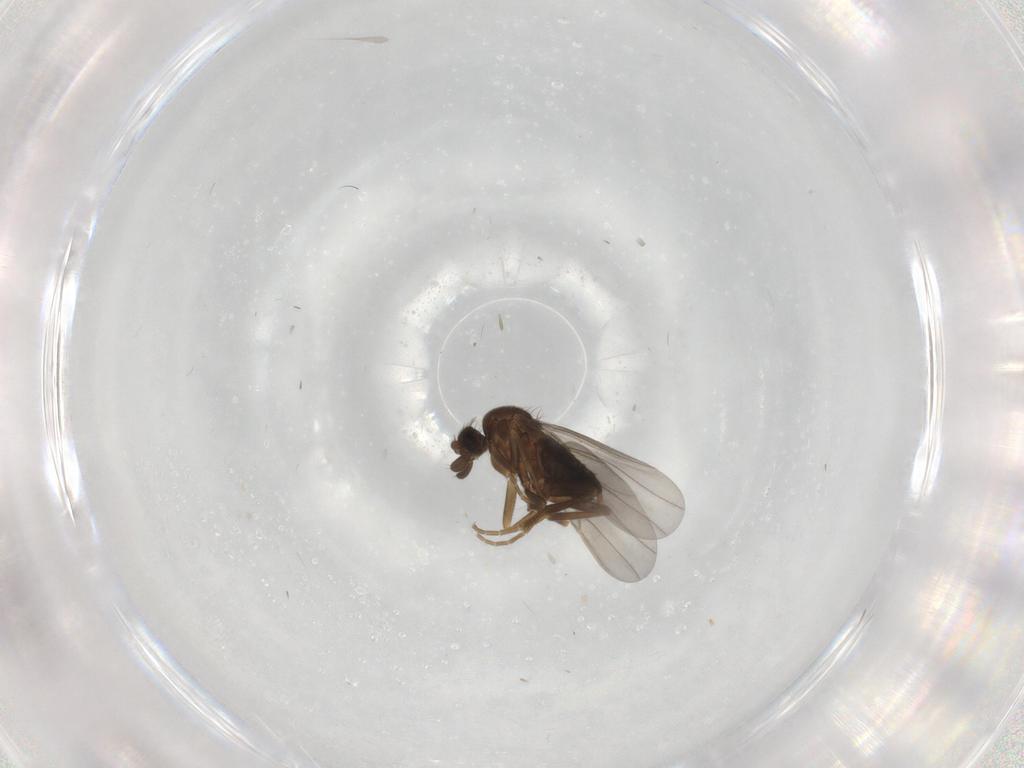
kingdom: Animalia
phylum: Arthropoda
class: Insecta
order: Diptera
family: Phoridae
